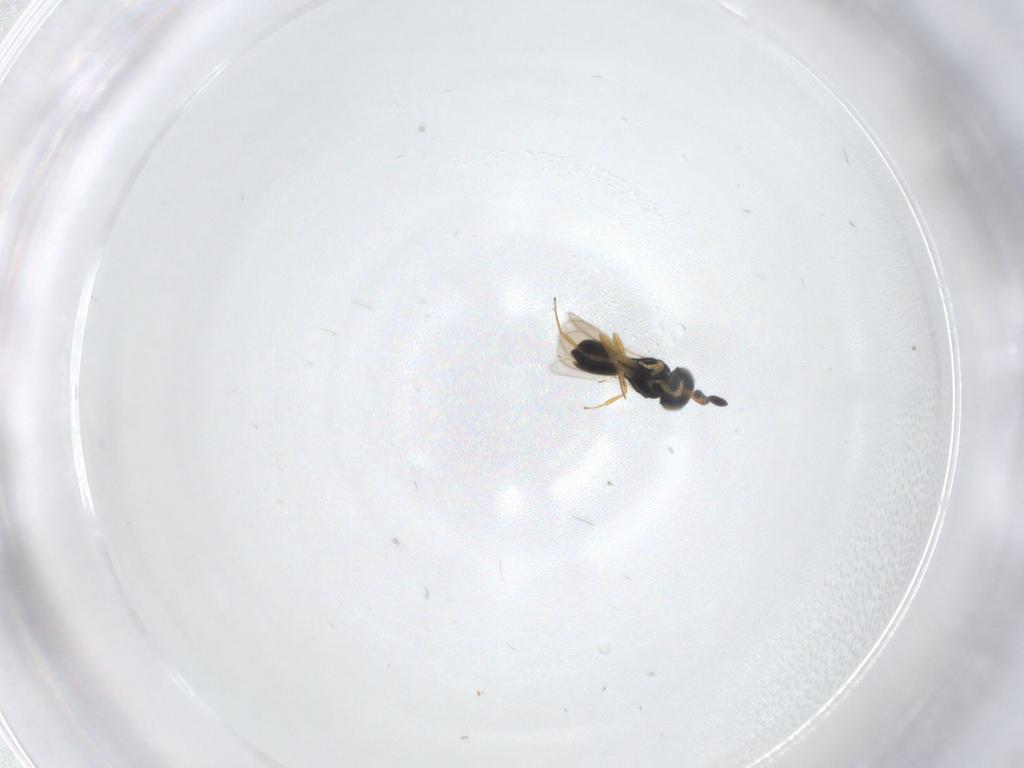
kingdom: Animalia
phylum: Arthropoda
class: Insecta
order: Hymenoptera
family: Scelionidae
